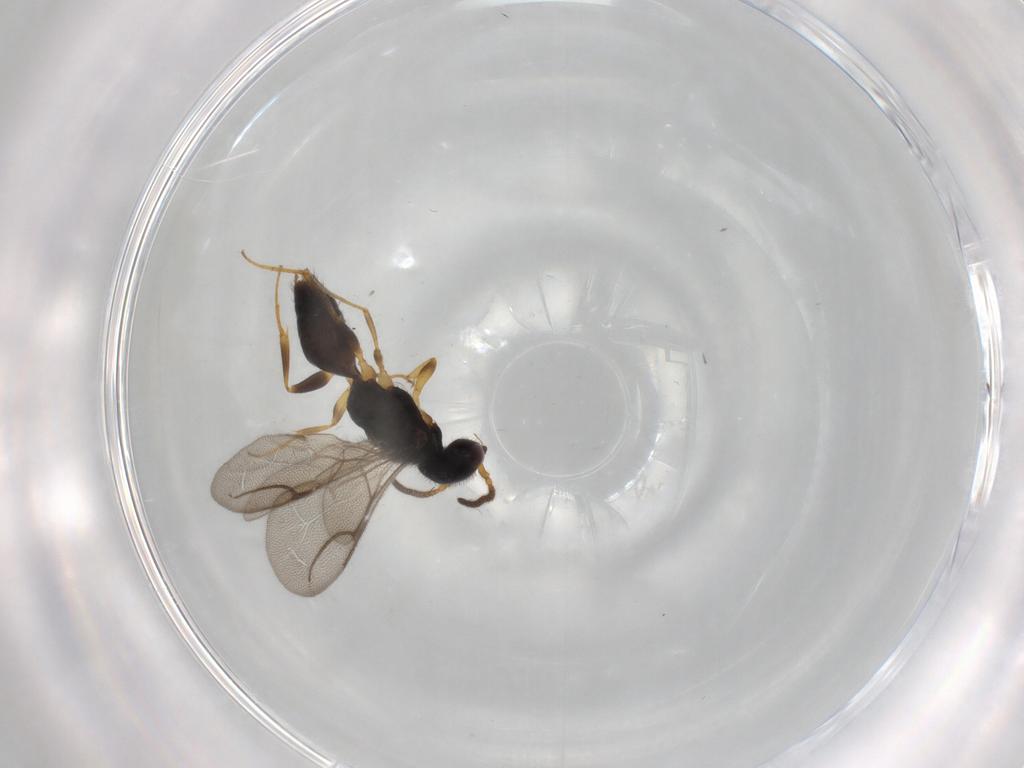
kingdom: Animalia
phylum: Arthropoda
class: Insecta
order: Hymenoptera
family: Bethylidae
